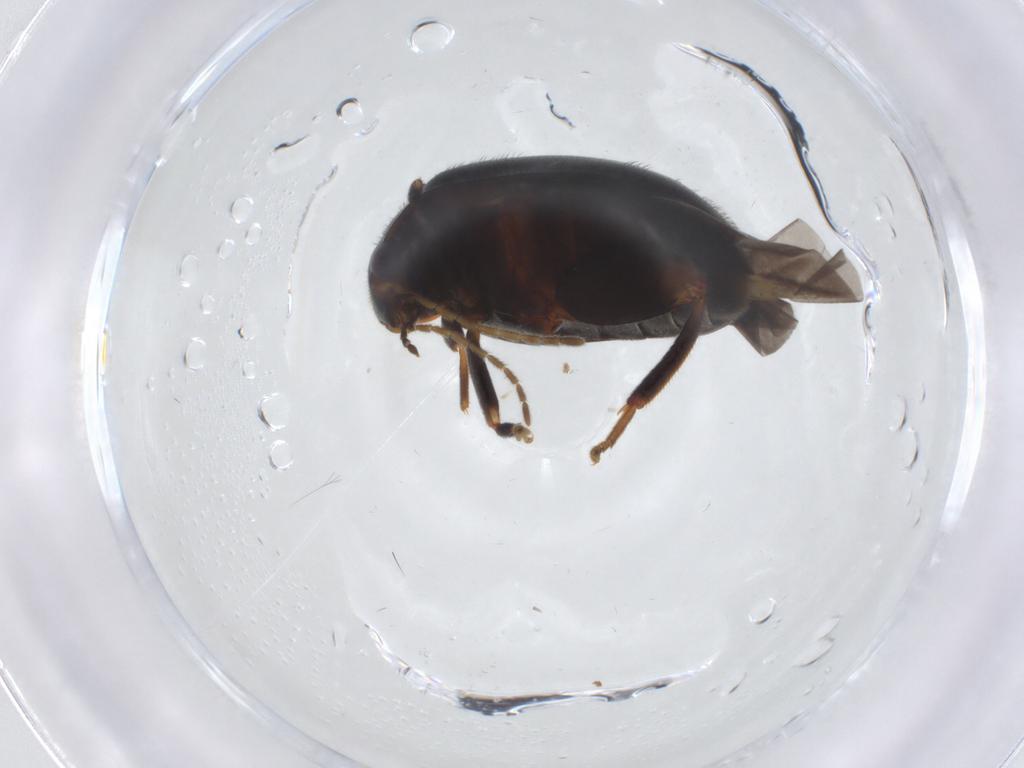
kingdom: Animalia
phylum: Arthropoda
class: Insecta
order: Coleoptera
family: Scirtidae
